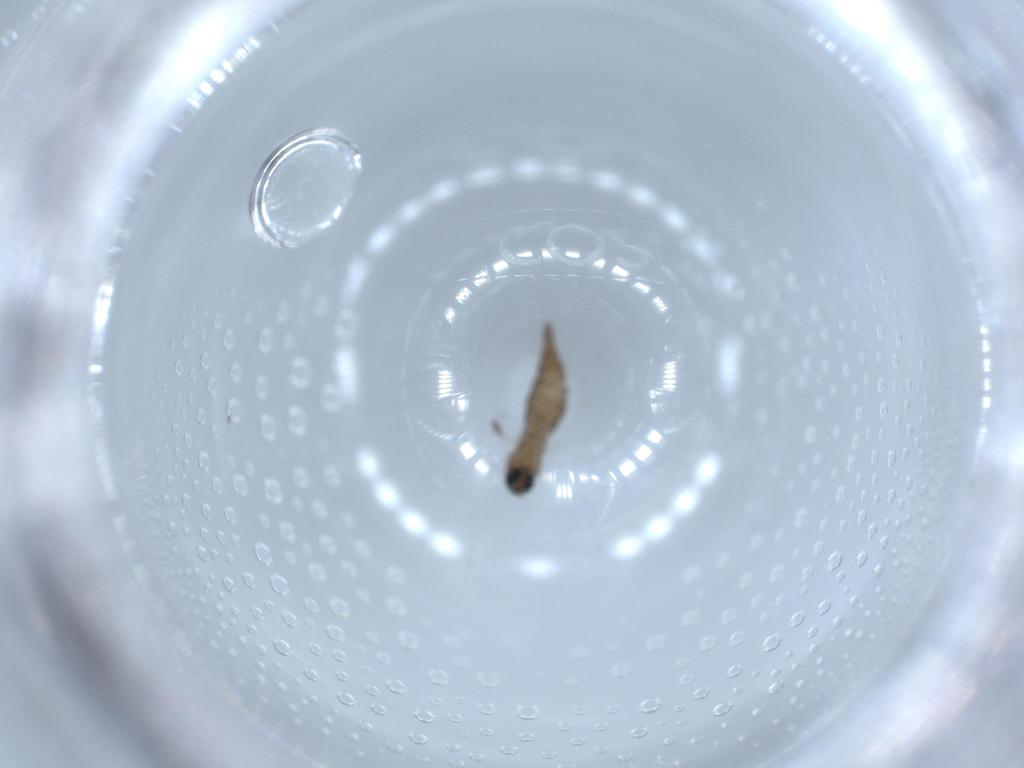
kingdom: Animalia
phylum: Arthropoda
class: Insecta
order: Diptera
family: Sciaridae
